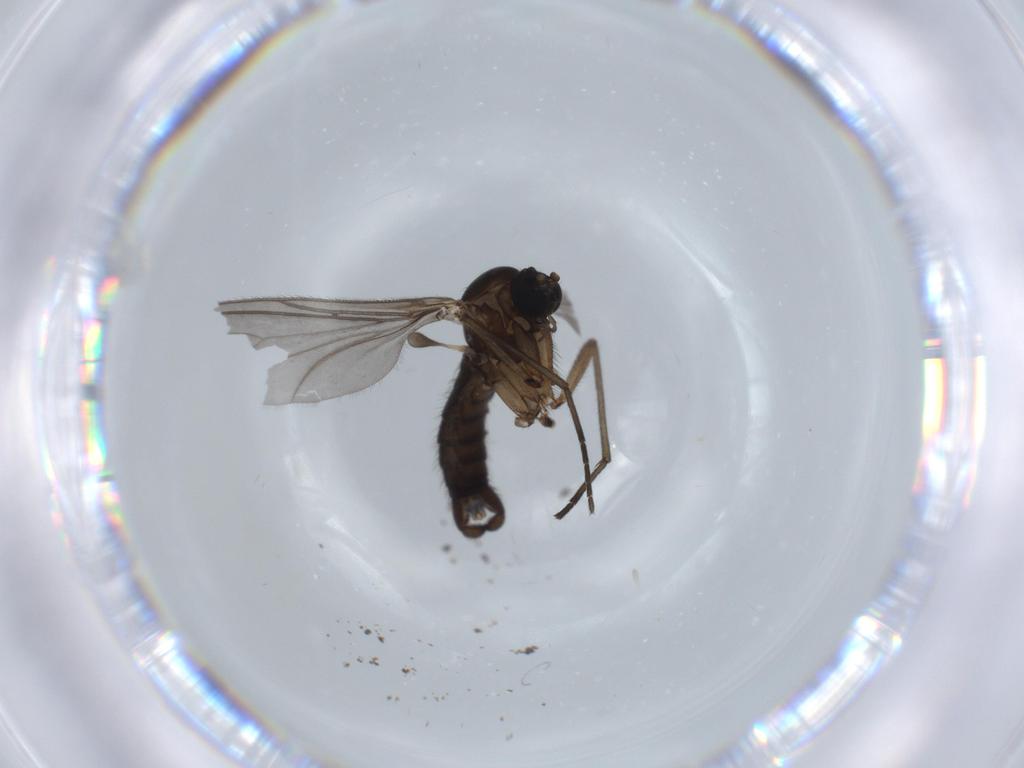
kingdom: Animalia
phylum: Arthropoda
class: Insecta
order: Diptera
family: Phoridae
